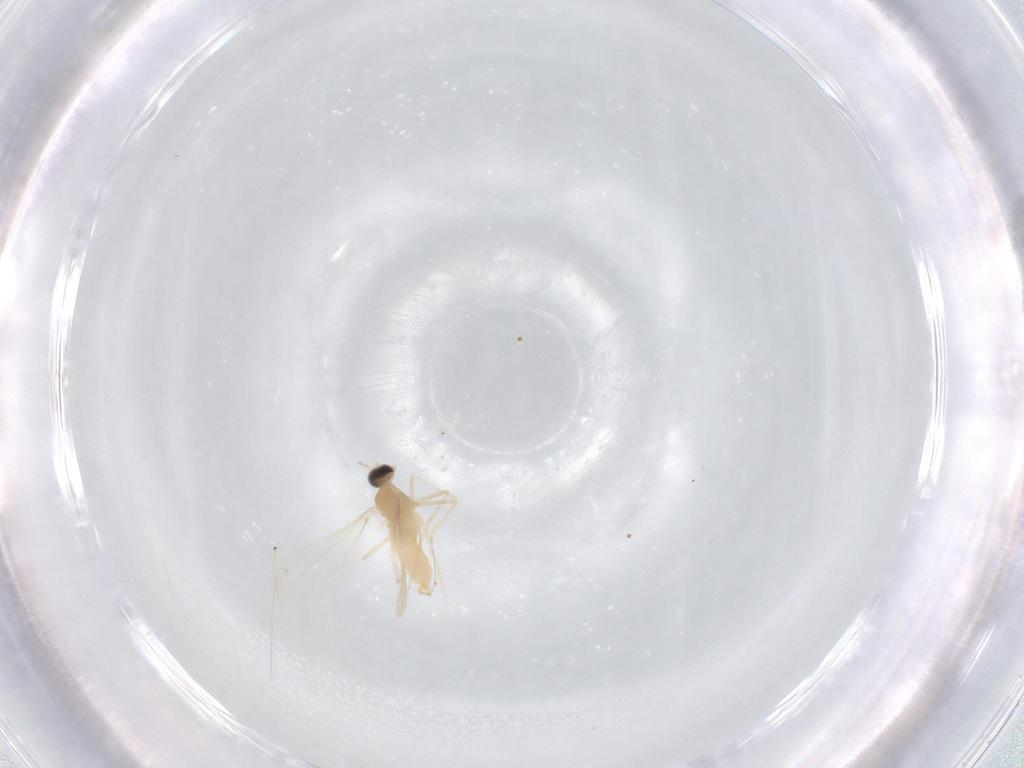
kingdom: Animalia
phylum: Arthropoda
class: Insecta
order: Diptera
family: Cecidomyiidae
